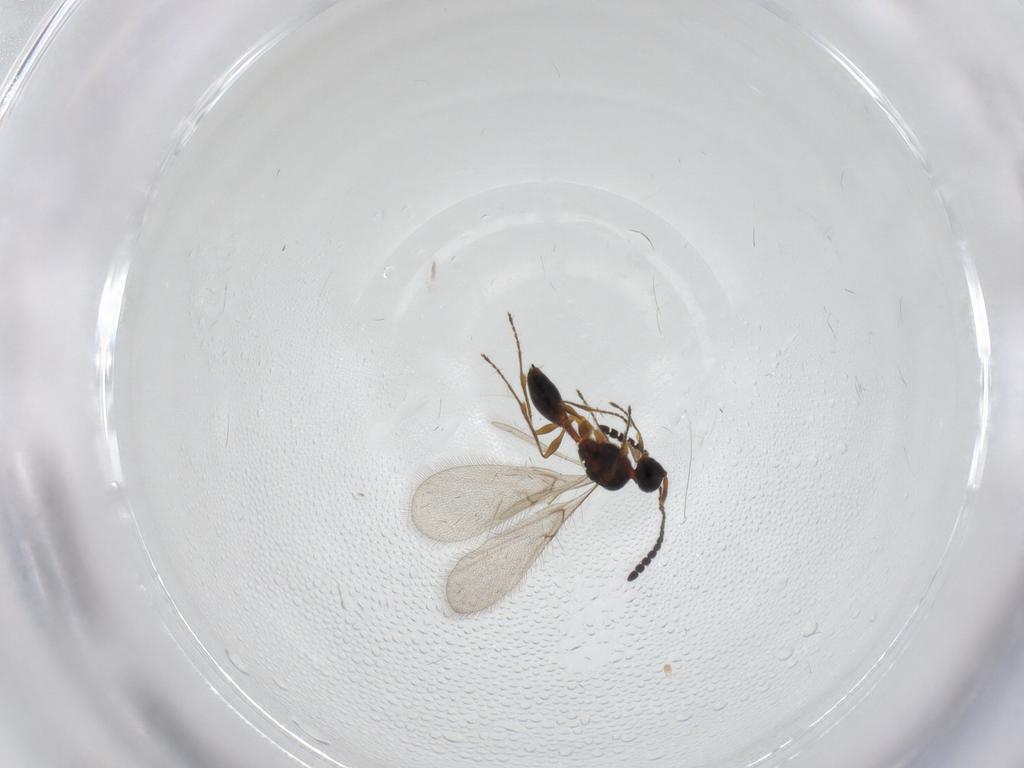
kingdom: Animalia
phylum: Arthropoda
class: Insecta
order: Hymenoptera
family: Diapriidae
